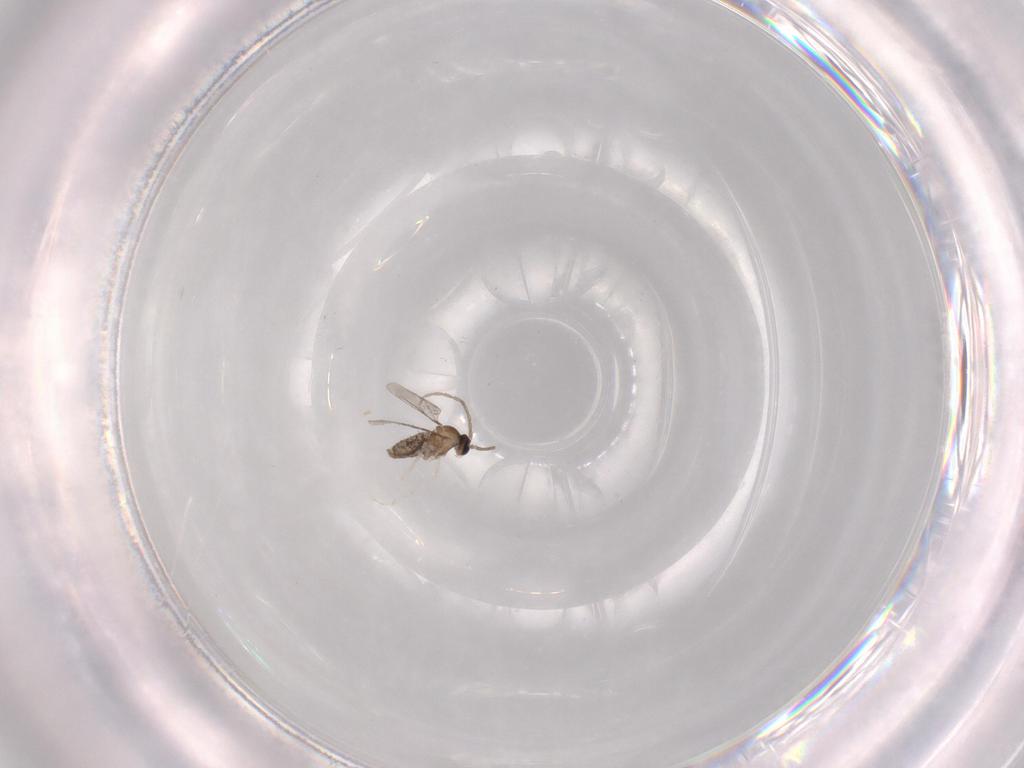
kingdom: Animalia
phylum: Arthropoda
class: Insecta
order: Diptera
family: Cecidomyiidae
